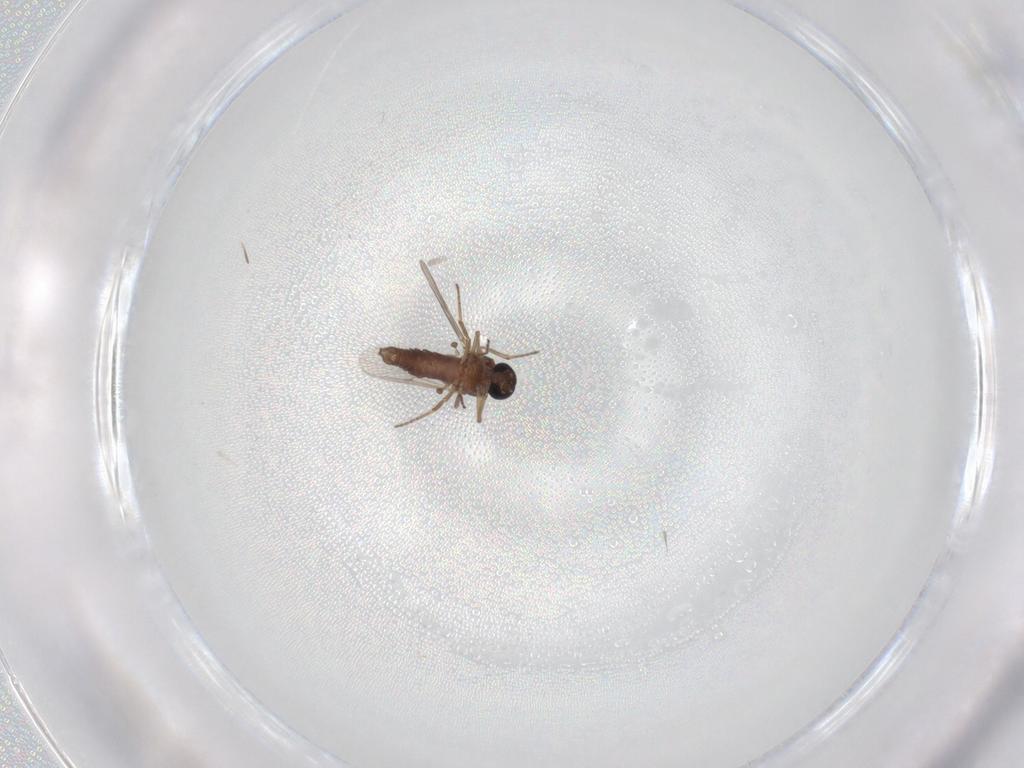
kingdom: Animalia
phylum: Arthropoda
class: Insecta
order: Diptera
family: Ceratopogonidae
